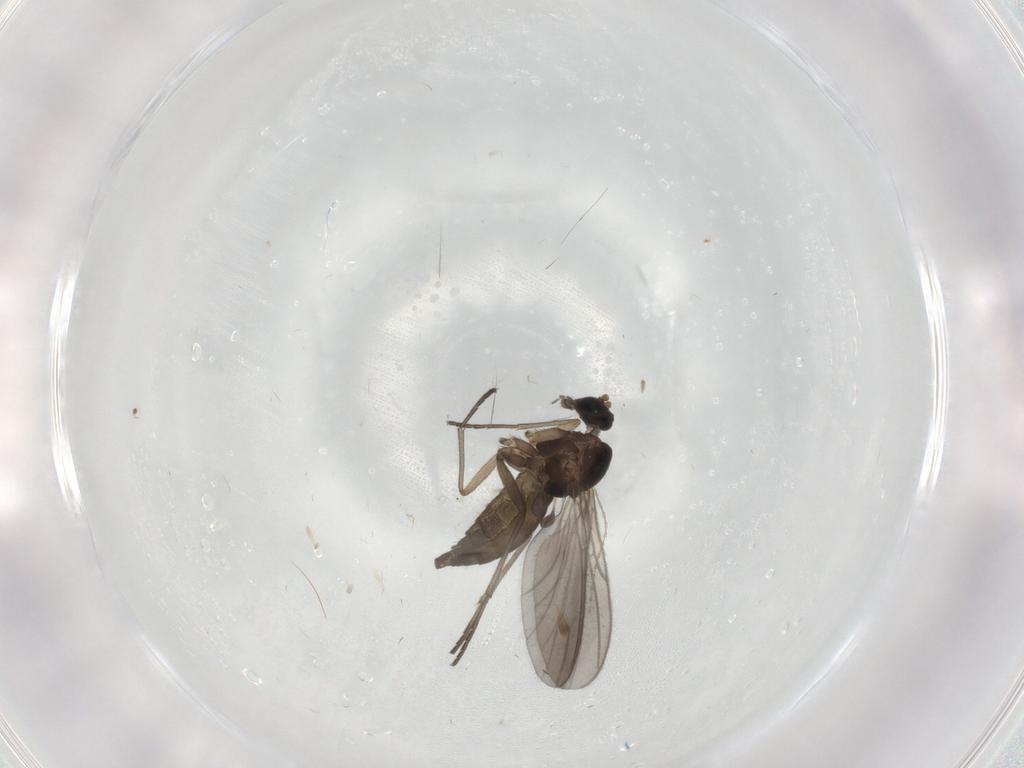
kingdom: Animalia
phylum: Arthropoda
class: Insecta
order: Diptera
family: Sciaridae
